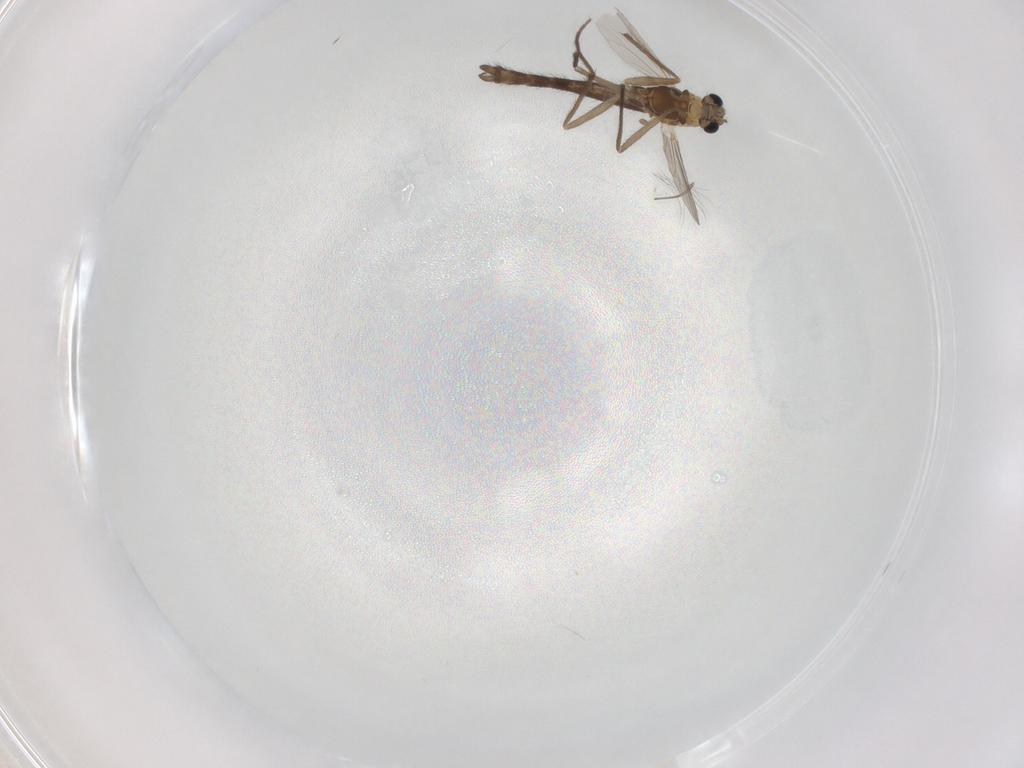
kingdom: Animalia
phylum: Arthropoda
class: Insecta
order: Diptera
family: Chironomidae
